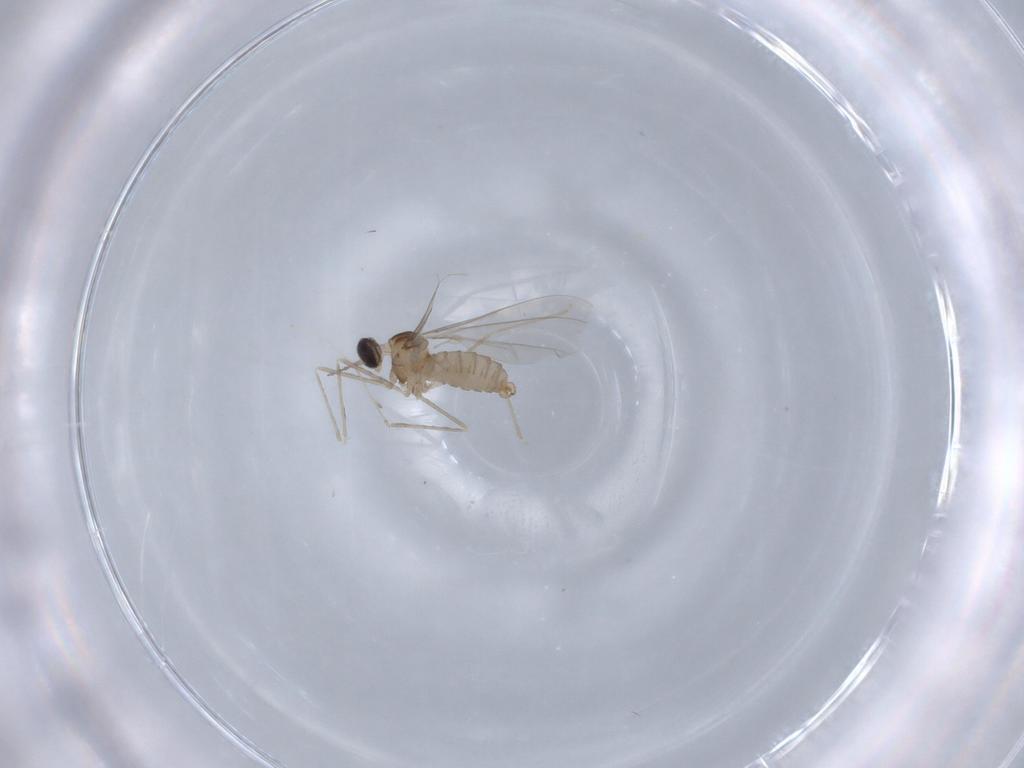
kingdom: Animalia
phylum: Arthropoda
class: Insecta
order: Diptera
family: Cecidomyiidae
